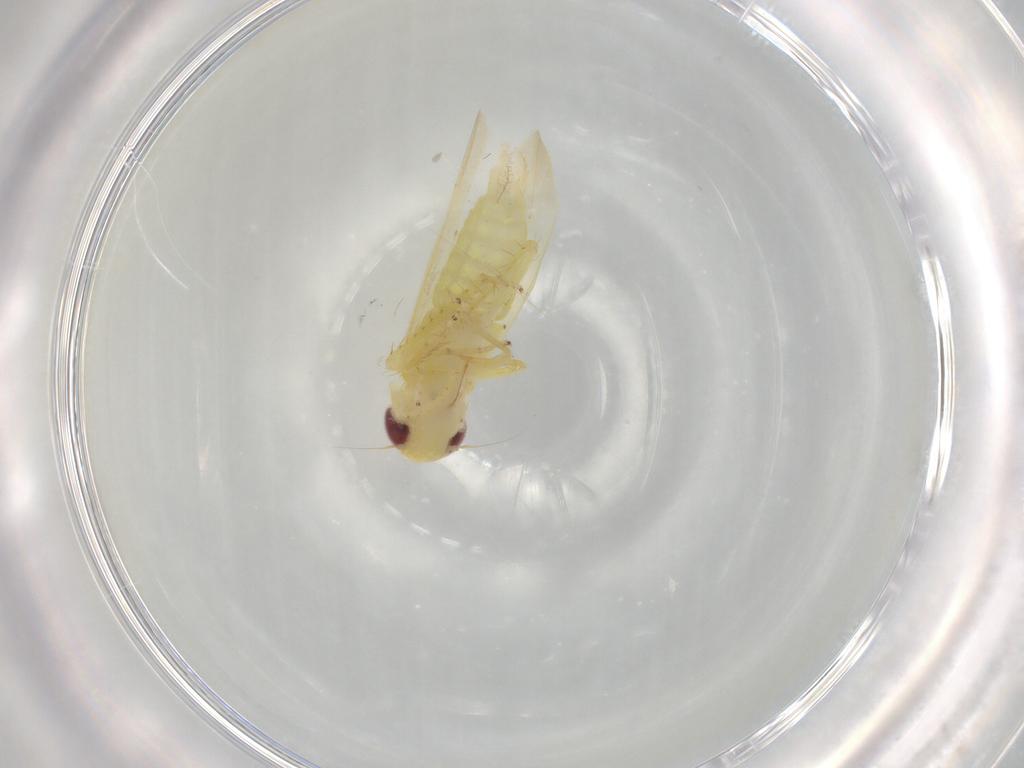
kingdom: Animalia
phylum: Arthropoda
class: Insecta
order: Hemiptera
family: Cicadellidae
